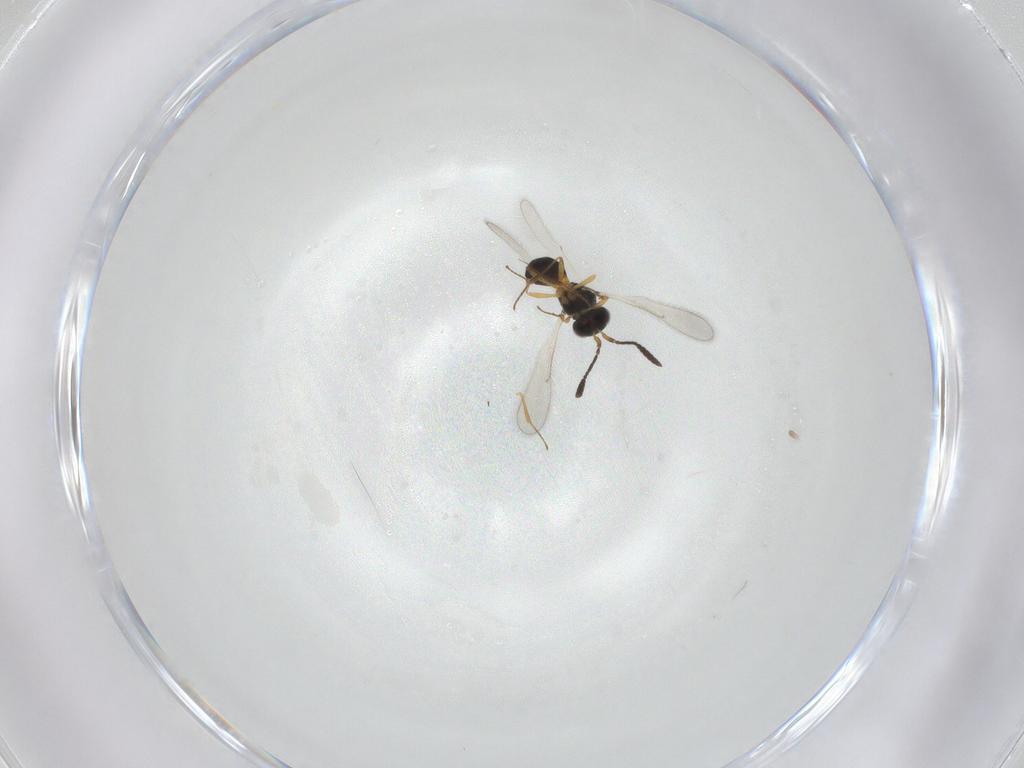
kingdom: Animalia
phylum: Arthropoda
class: Insecta
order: Hymenoptera
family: Scelionidae
